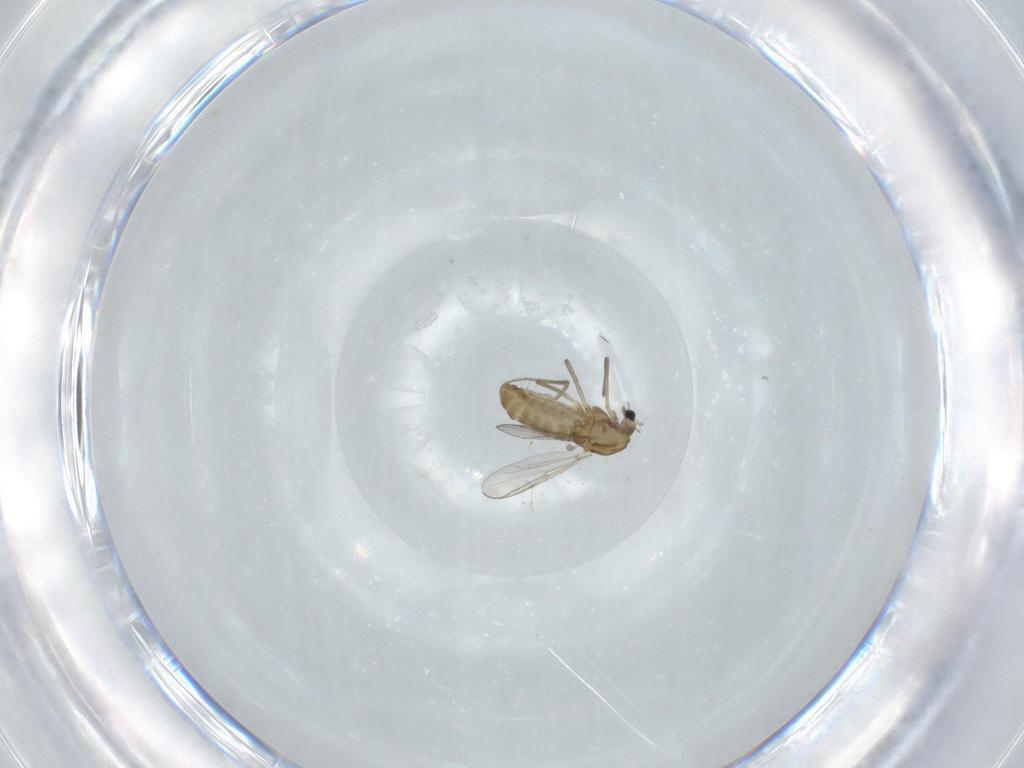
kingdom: Animalia
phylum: Arthropoda
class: Insecta
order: Diptera
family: Chironomidae
